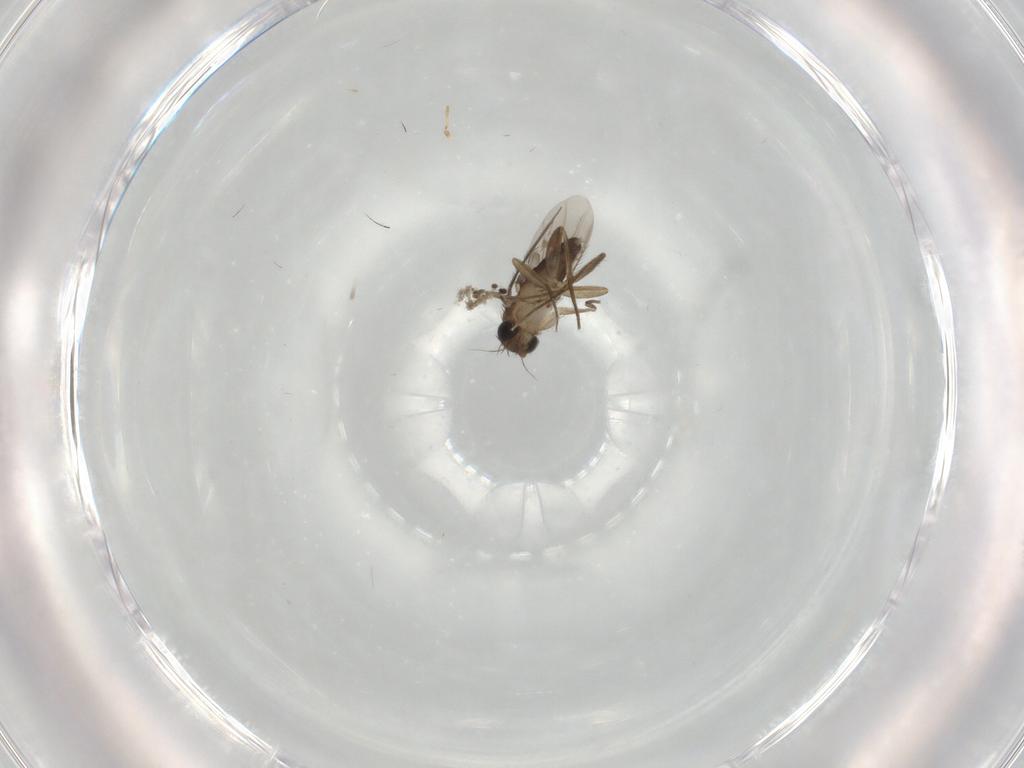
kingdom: Animalia
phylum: Arthropoda
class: Insecta
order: Diptera
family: Phoridae
